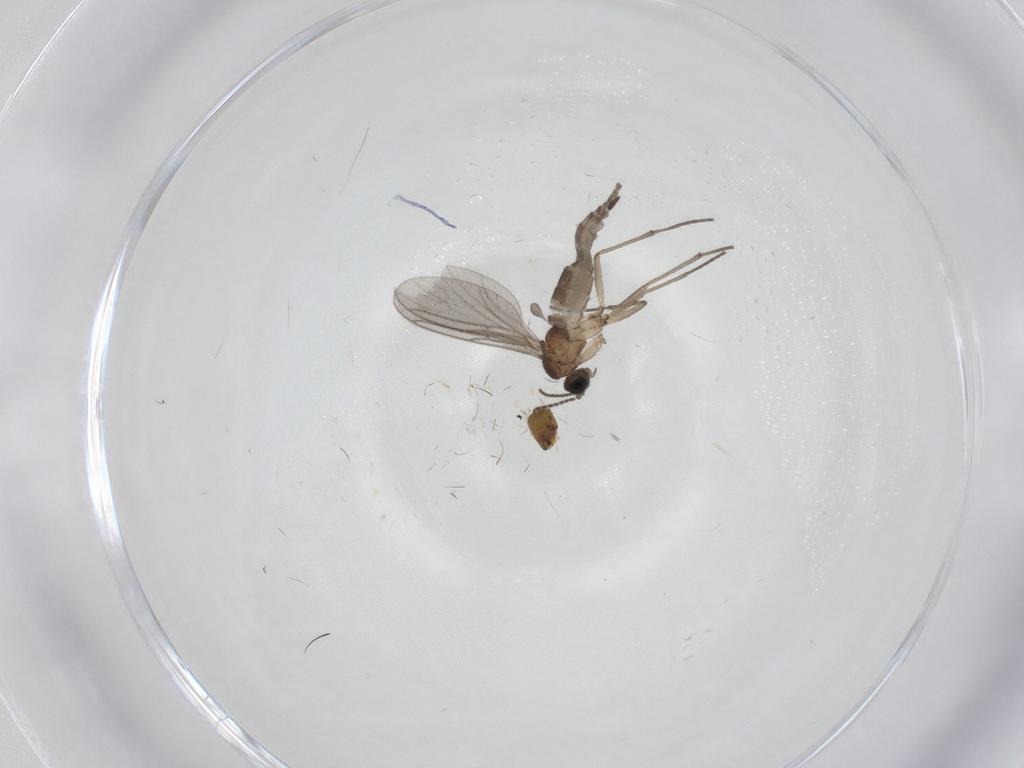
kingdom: Animalia
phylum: Arthropoda
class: Insecta
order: Diptera
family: Sciaridae
